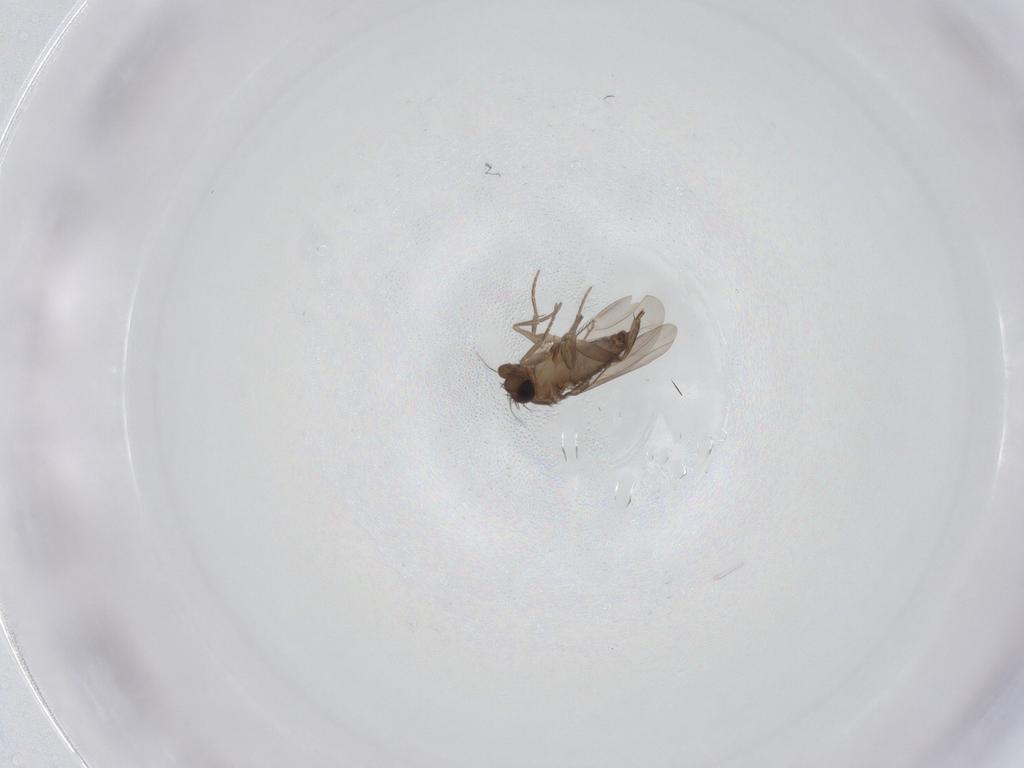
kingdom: Animalia
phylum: Arthropoda
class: Insecta
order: Diptera
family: Phoridae
